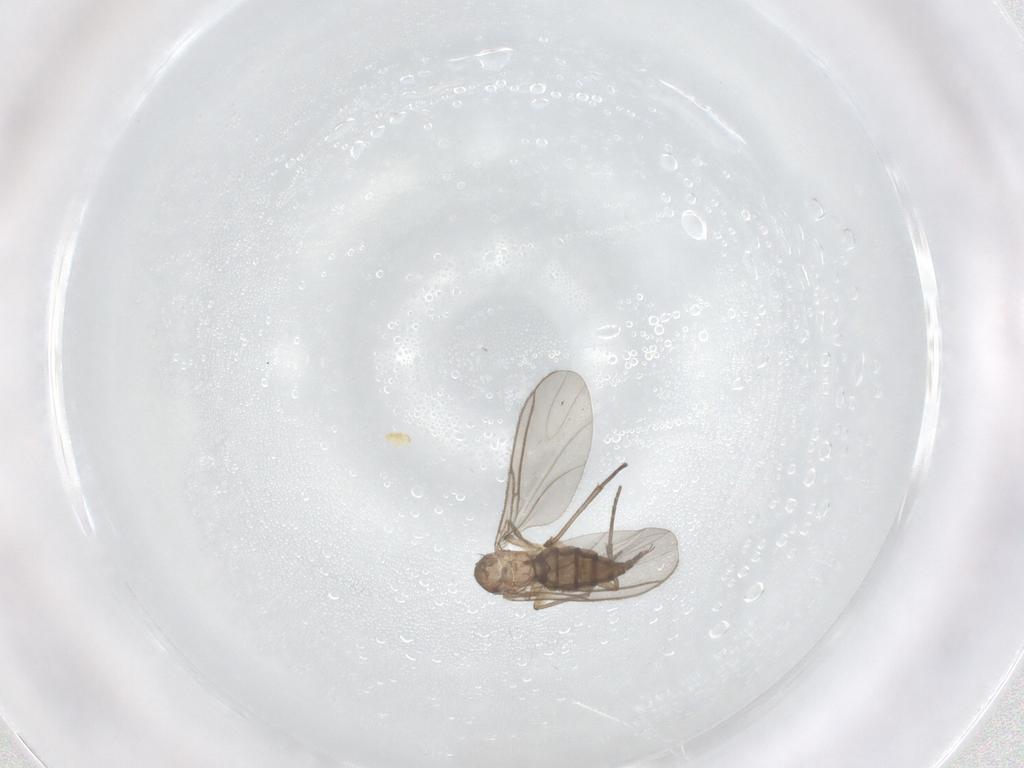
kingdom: Animalia
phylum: Arthropoda
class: Insecta
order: Diptera
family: Sciaridae
